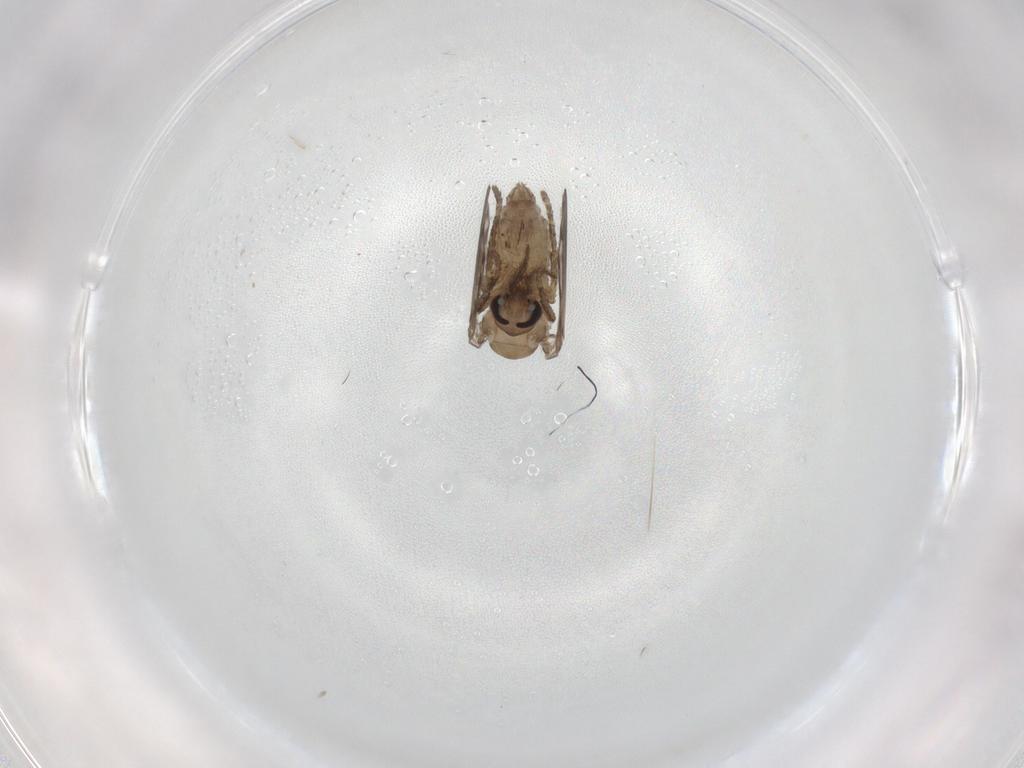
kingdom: Animalia
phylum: Arthropoda
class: Insecta
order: Diptera
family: Psychodidae
